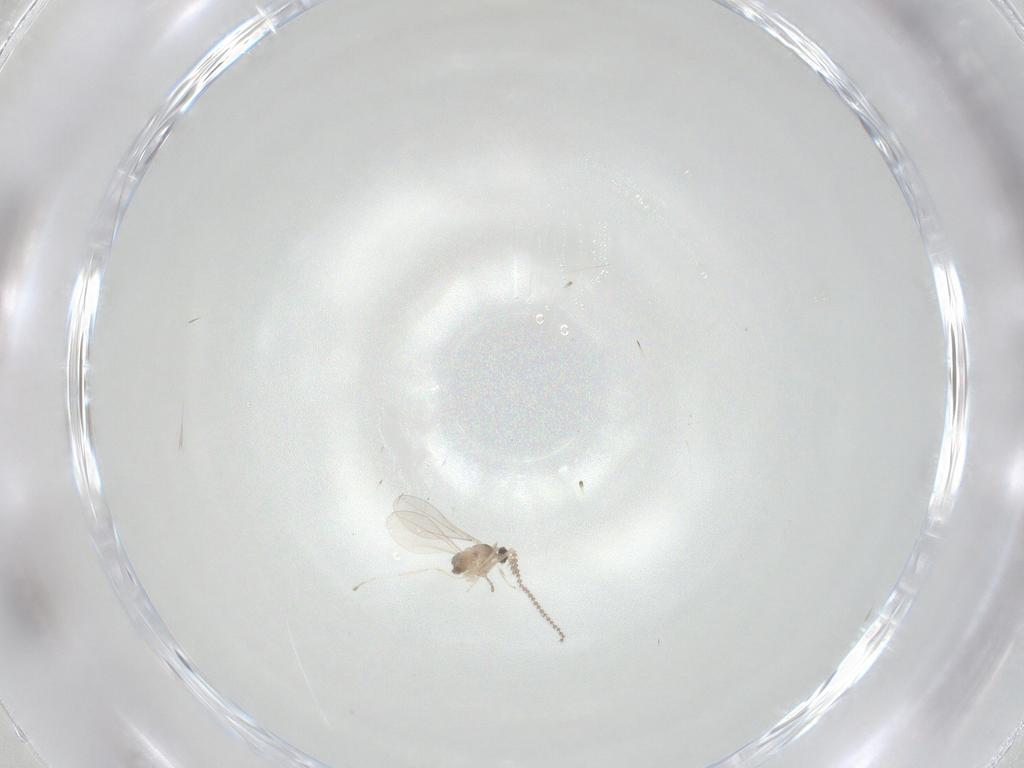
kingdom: Animalia
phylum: Arthropoda
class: Insecta
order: Diptera
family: Cecidomyiidae
